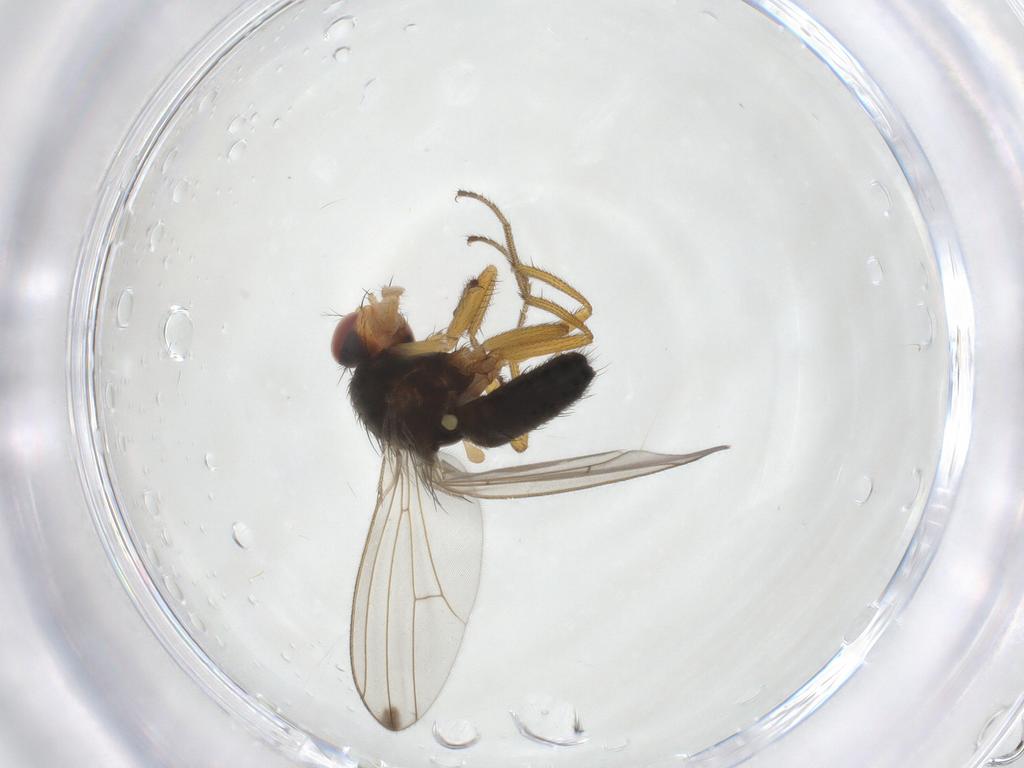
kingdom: Animalia
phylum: Arthropoda
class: Insecta
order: Diptera
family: Drosophilidae
